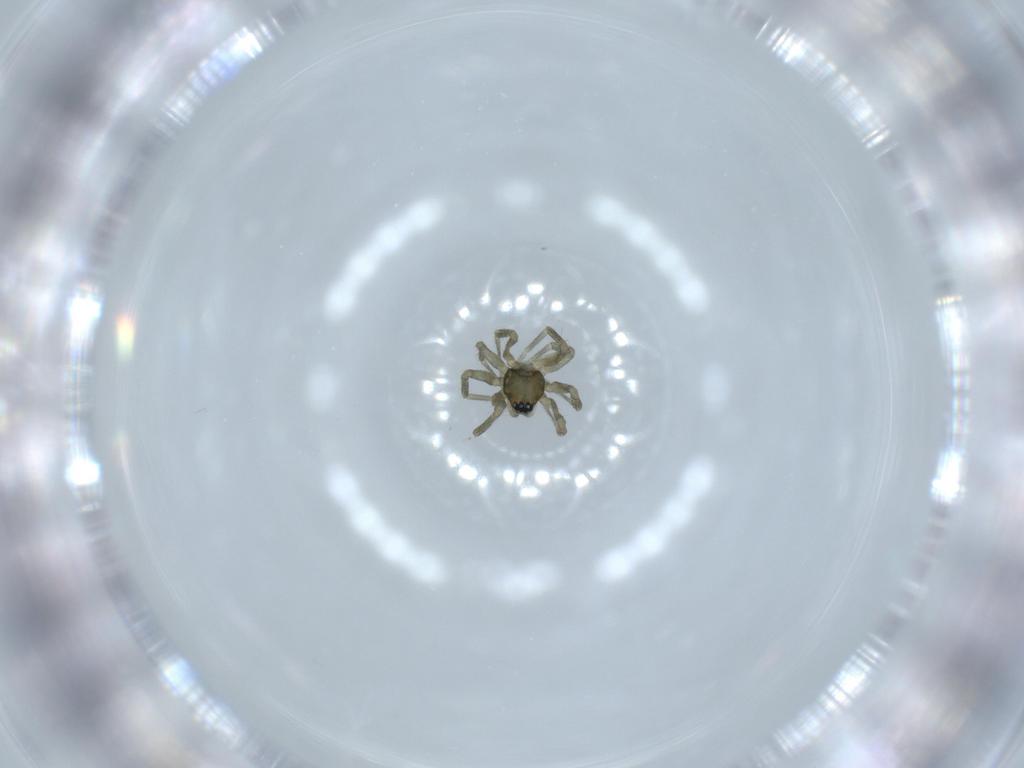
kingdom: Animalia
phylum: Arthropoda
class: Arachnida
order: Araneae
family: Linyphiidae
